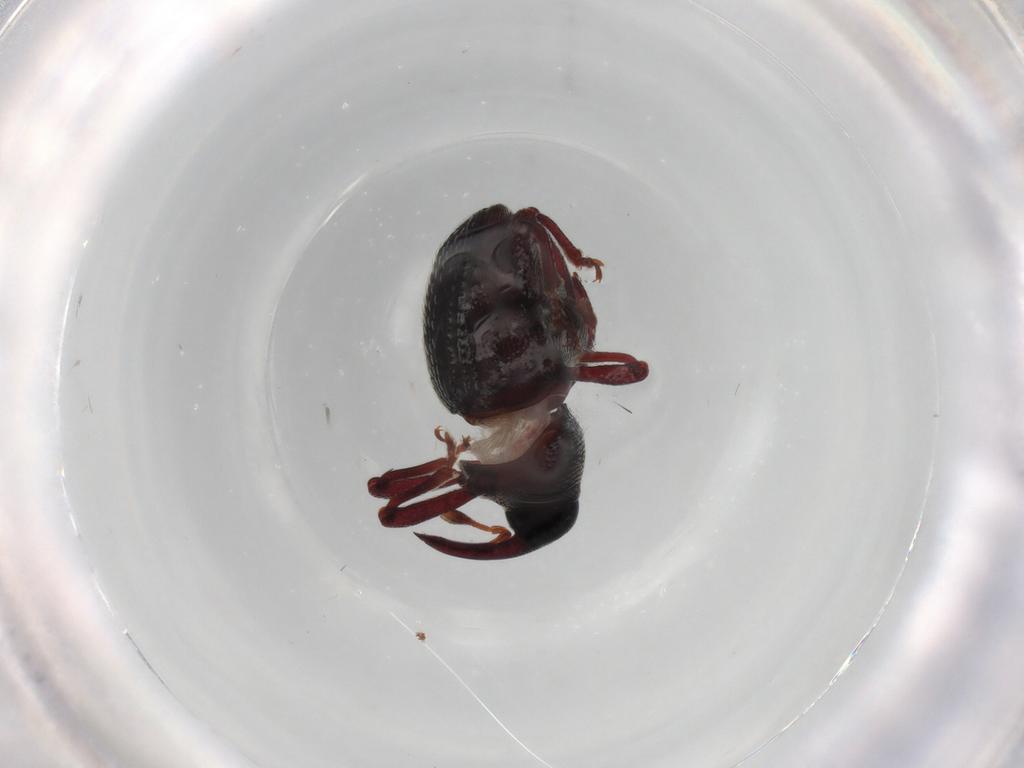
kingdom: Animalia
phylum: Arthropoda
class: Insecta
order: Coleoptera
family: Curculionidae
